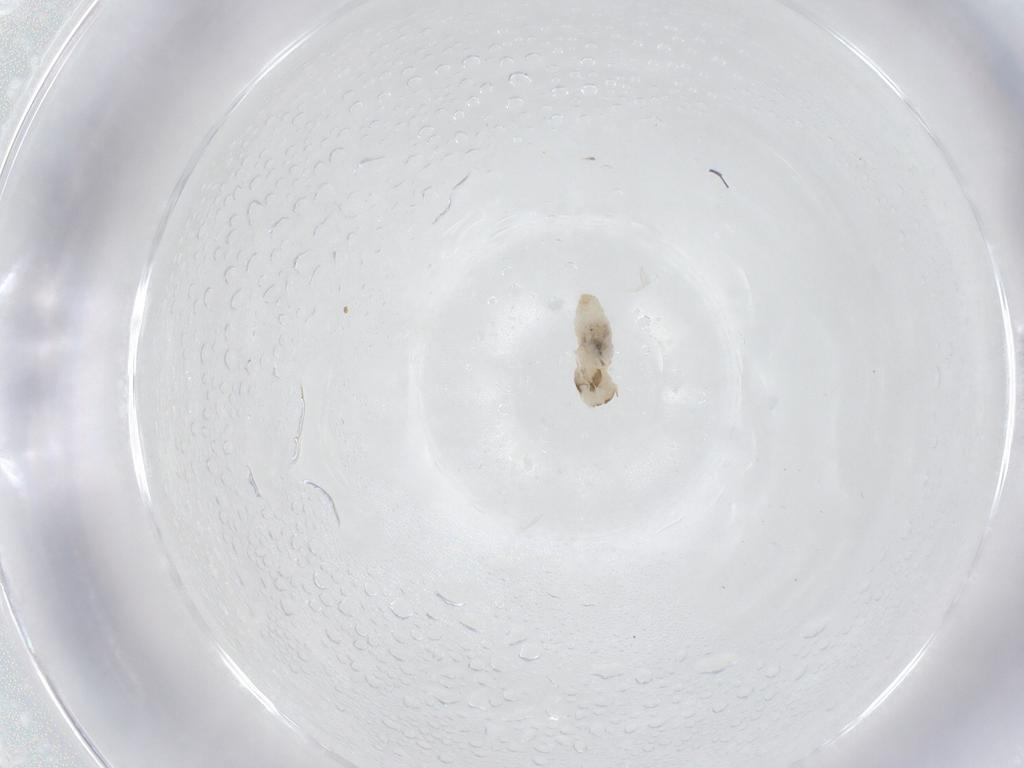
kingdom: Animalia
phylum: Arthropoda
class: Insecta
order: Diptera
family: Cecidomyiidae
